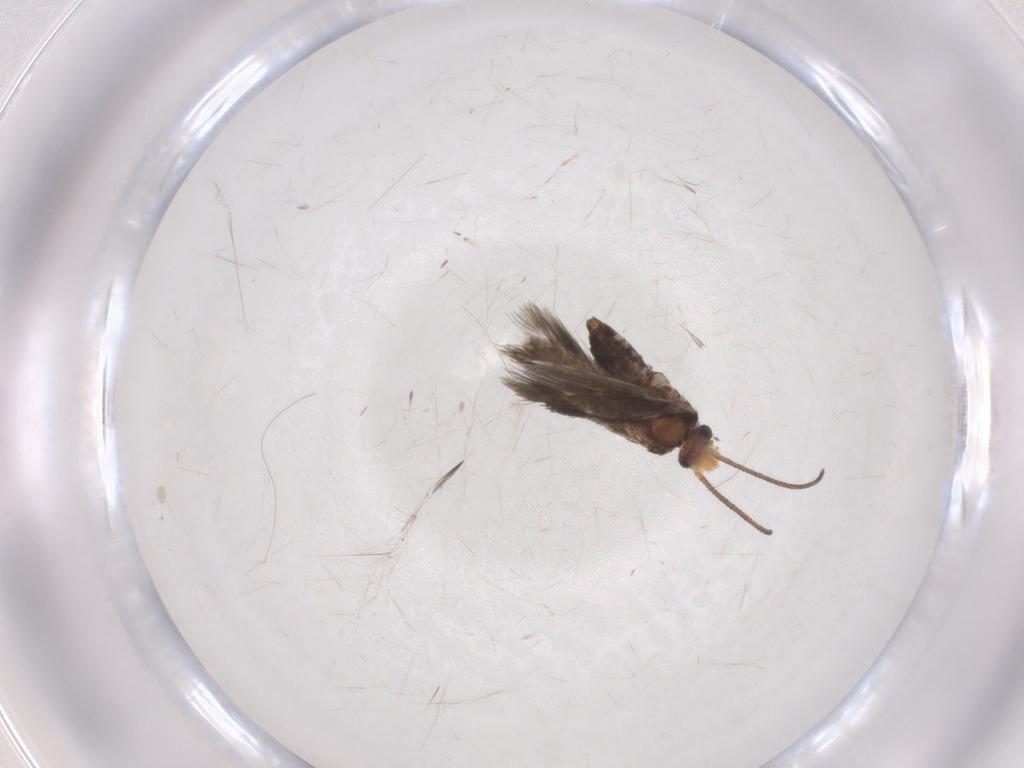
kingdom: Animalia
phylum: Arthropoda
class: Insecta
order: Lepidoptera
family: Nepticulidae
